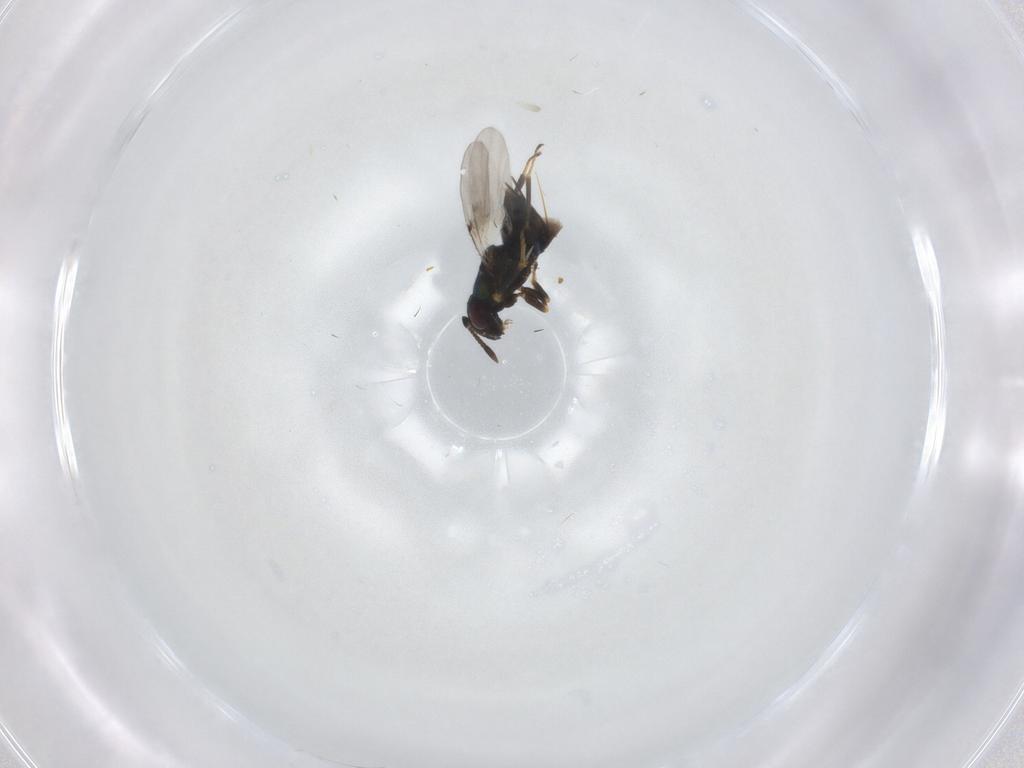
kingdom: Animalia
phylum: Arthropoda
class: Insecta
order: Hymenoptera
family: Encyrtidae
